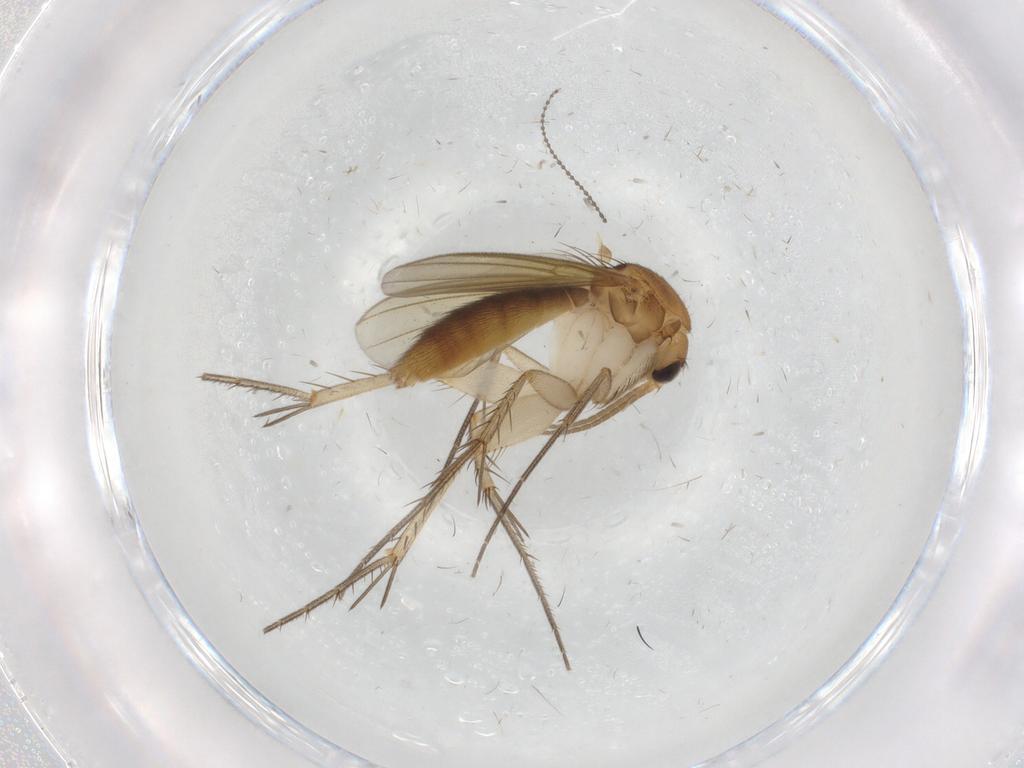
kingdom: Animalia
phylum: Arthropoda
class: Insecta
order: Diptera
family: Mycetophilidae
